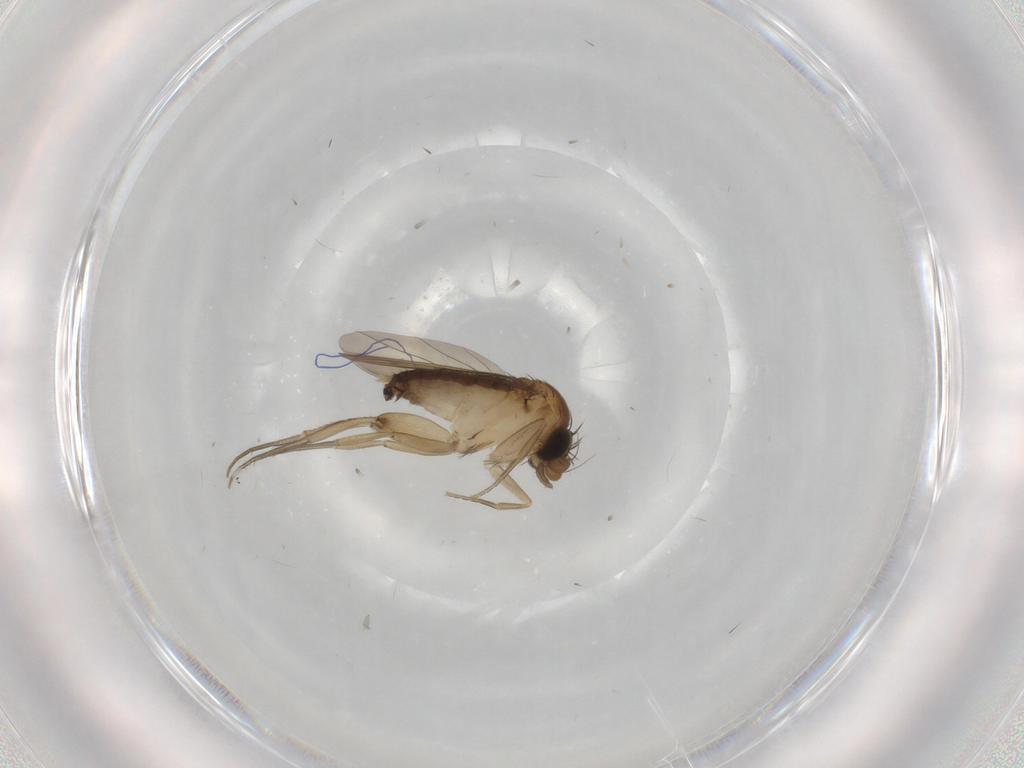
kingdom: Animalia
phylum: Arthropoda
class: Insecta
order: Diptera
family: Phoridae
